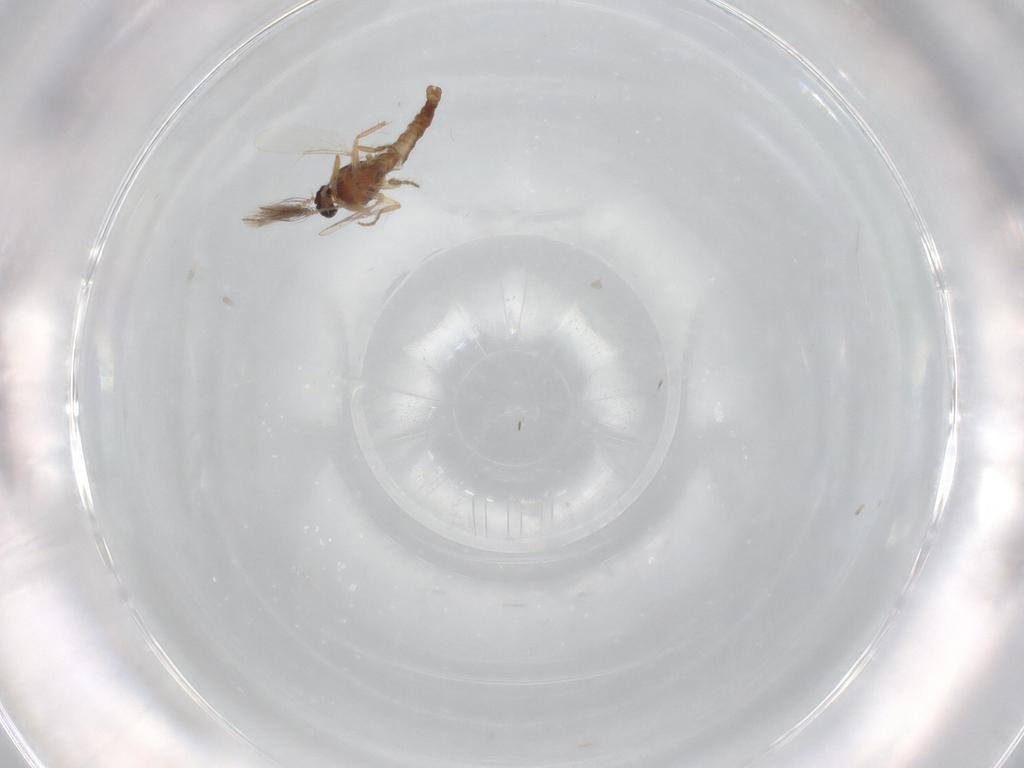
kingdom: Animalia
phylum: Arthropoda
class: Insecta
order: Diptera
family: Ceratopogonidae
